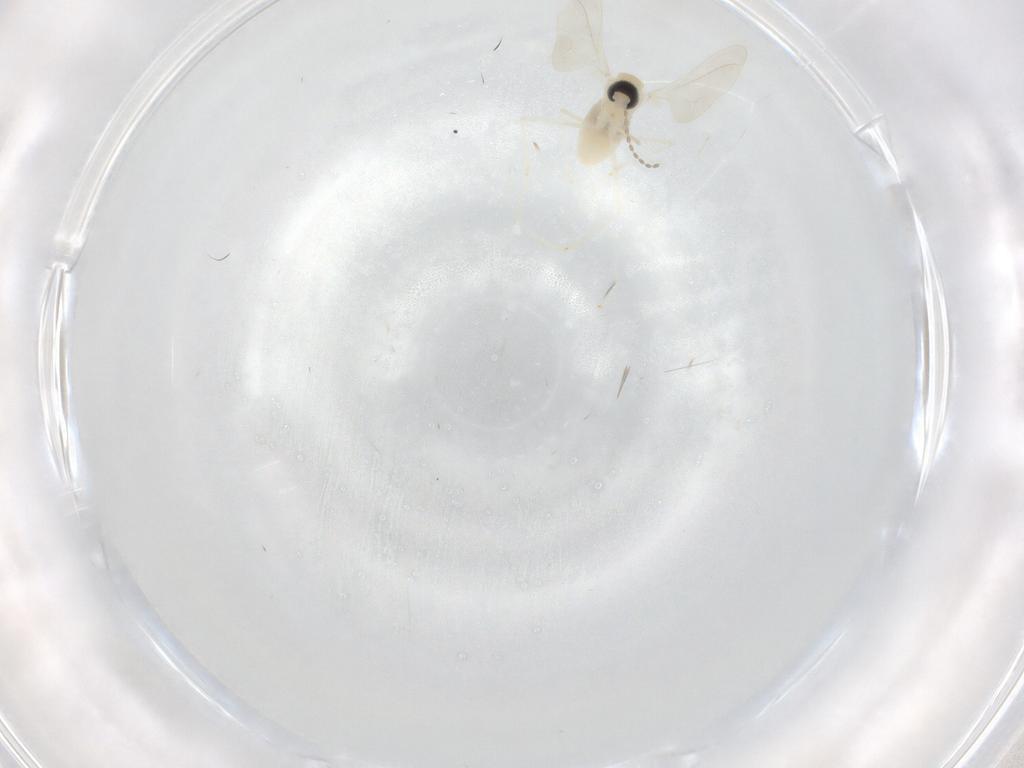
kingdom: Animalia
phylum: Arthropoda
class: Insecta
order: Diptera
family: Cecidomyiidae
